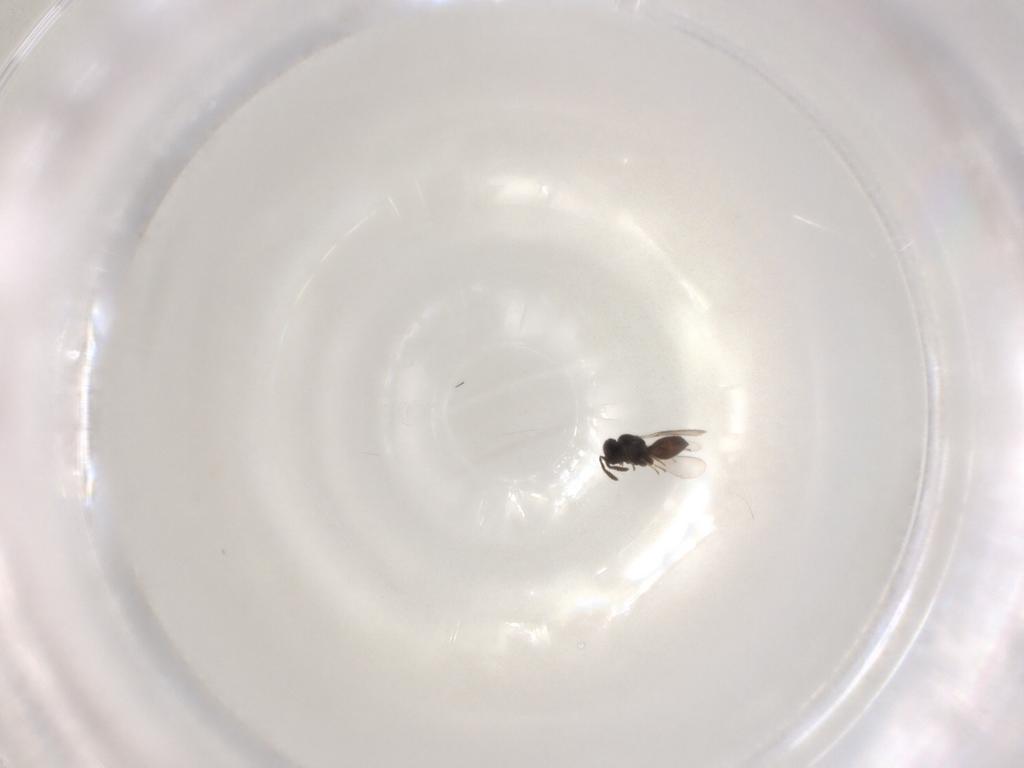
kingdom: Animalia
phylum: Arthropoda
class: Insecta
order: Hymenoptera
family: Scelionidae
